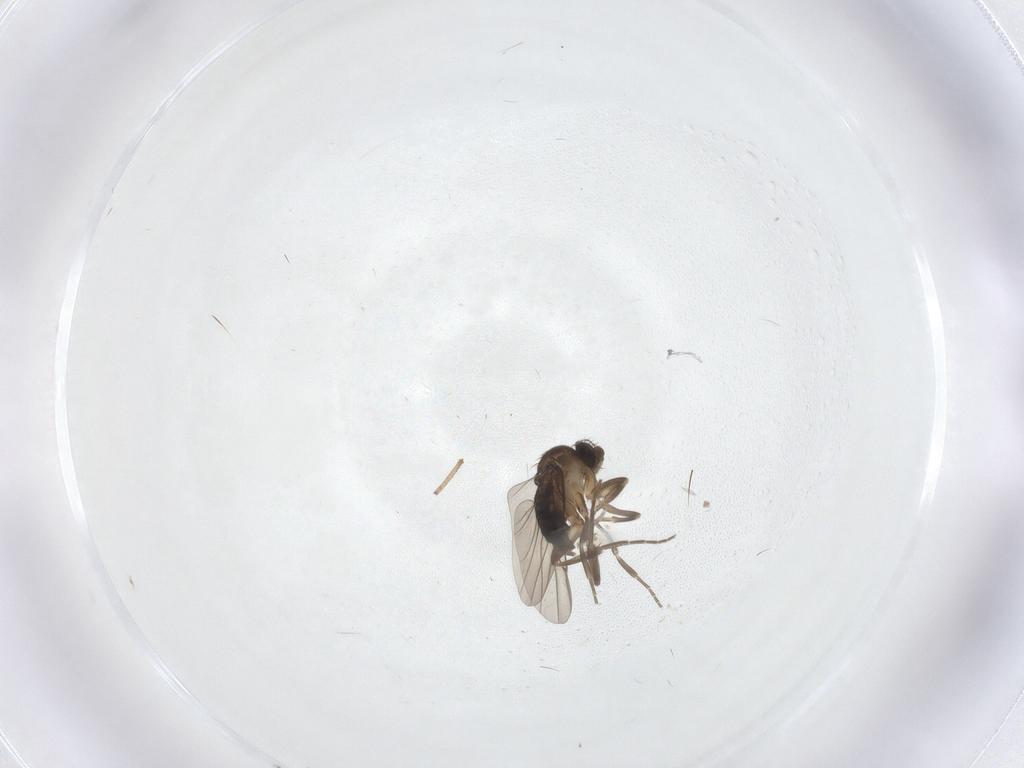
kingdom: Animalia
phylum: Arthropoda
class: Insecta
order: Diptera
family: Phoridae
